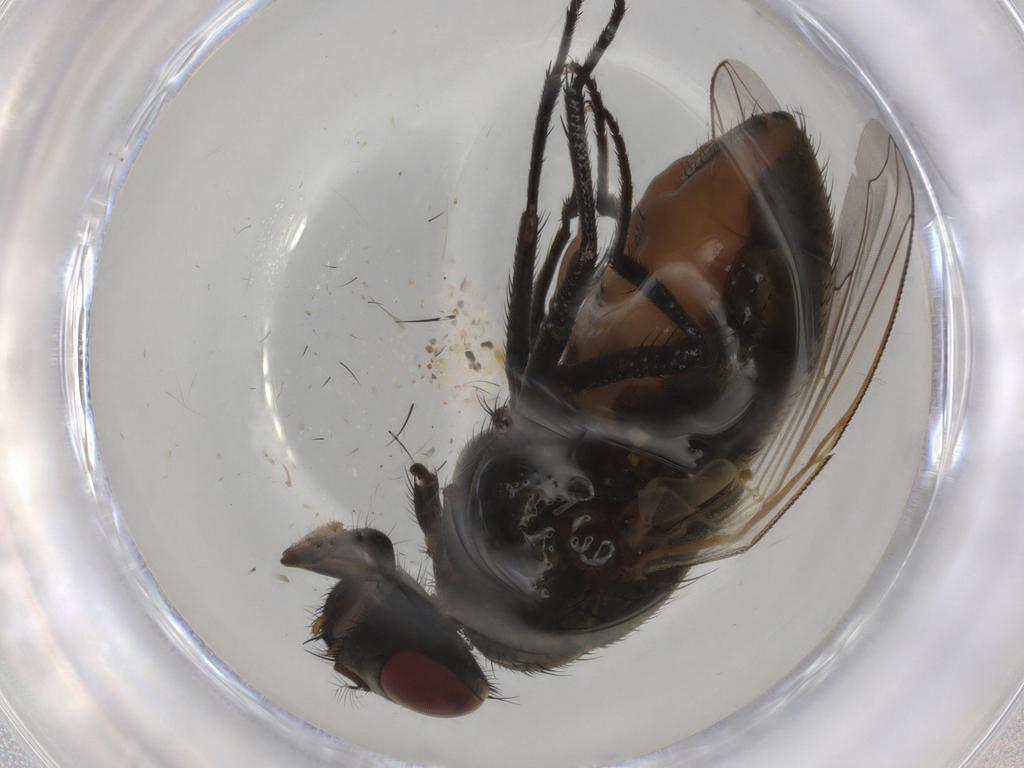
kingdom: Animalia
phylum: Arthropoda
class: Insecta
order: Diptera
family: Muscidae
